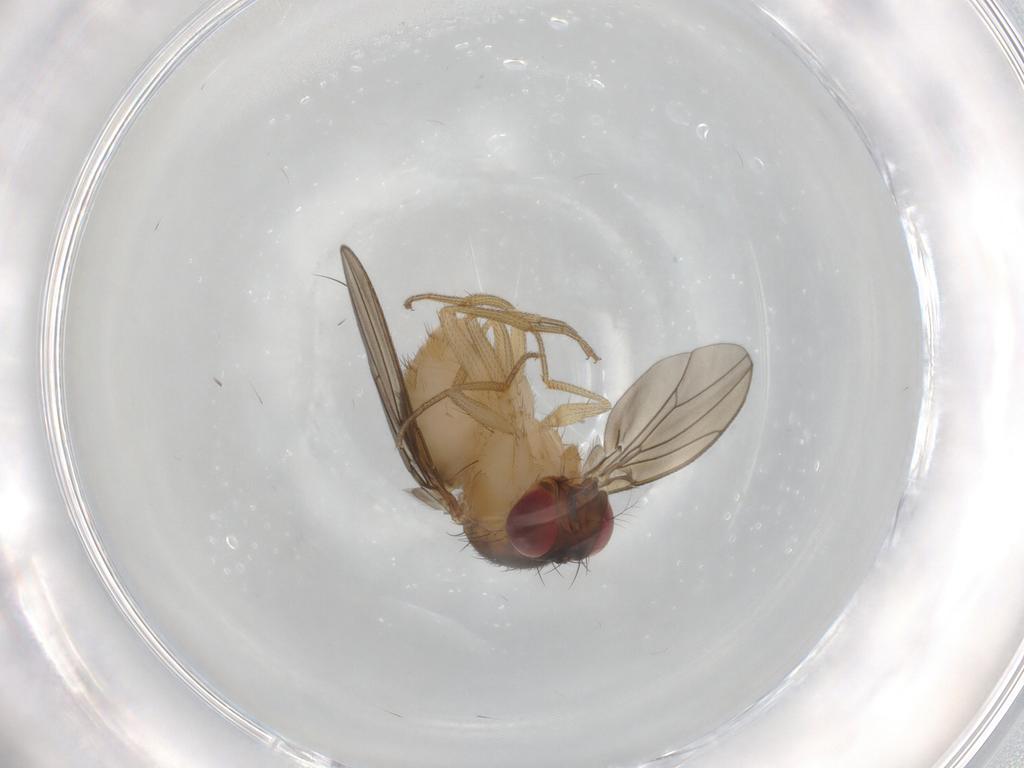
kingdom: Animalia
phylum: Arthropoda
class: Insecta
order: Diptera
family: Drosophilidae
